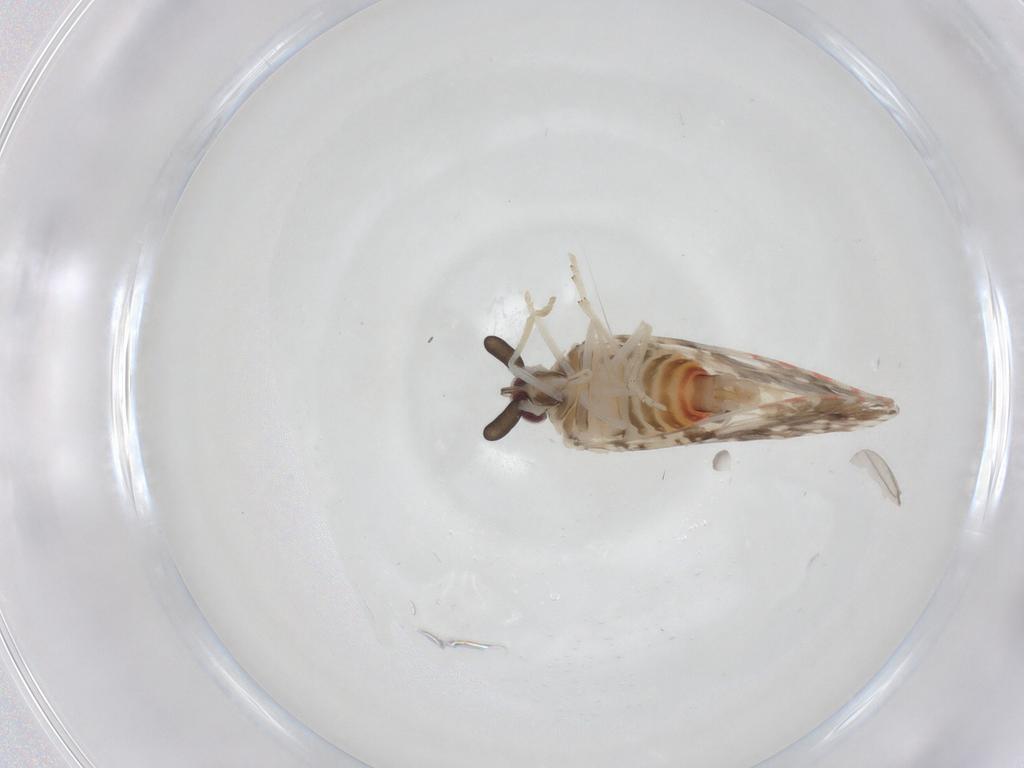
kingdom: Animalia
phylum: Arthropoda
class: Insecta
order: Hemiptera
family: Derbidae
